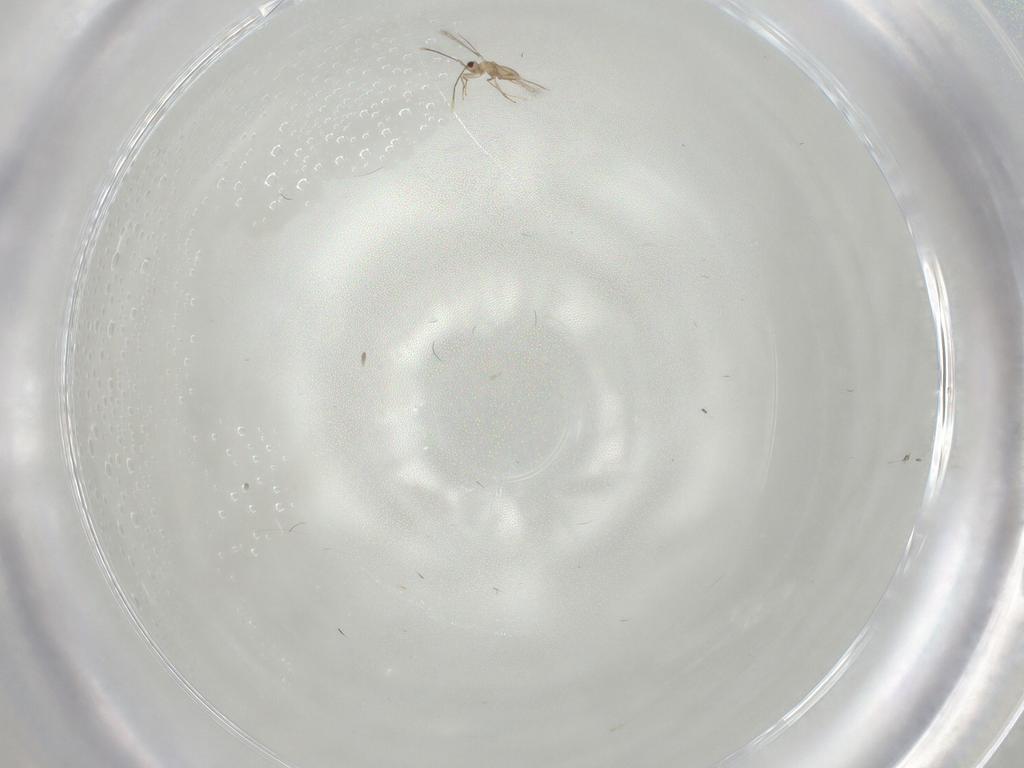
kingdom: Animalia
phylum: Arthropoda
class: Insecta
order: Hymenoptera
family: Mymaridae
